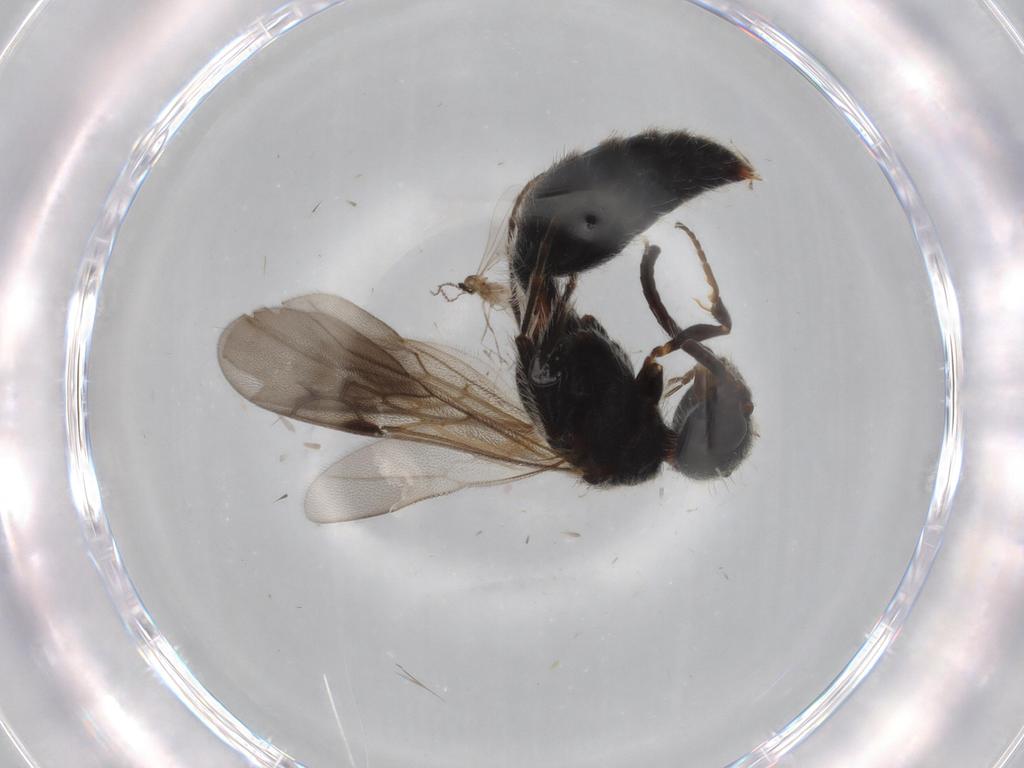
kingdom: Animalia
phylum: Arthropoda
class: Insecta
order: Hymenoptera
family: Mutillidae
